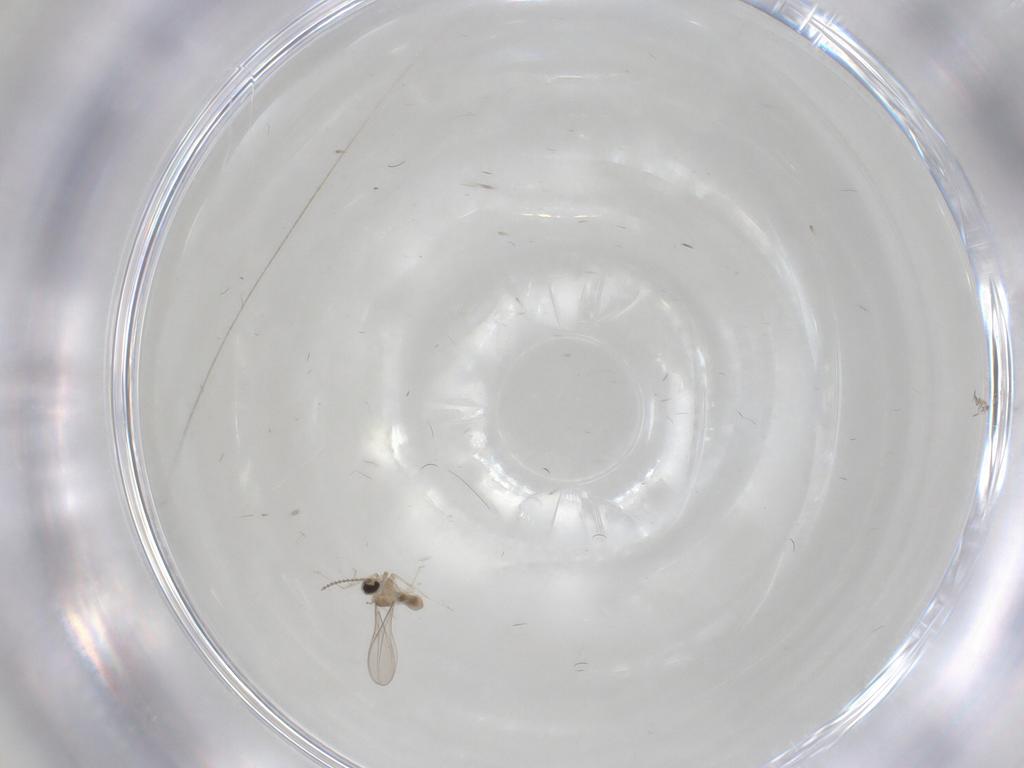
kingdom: Animalia
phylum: Arthropoda
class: Insecta
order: Diptera
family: Cecidomyiidae
